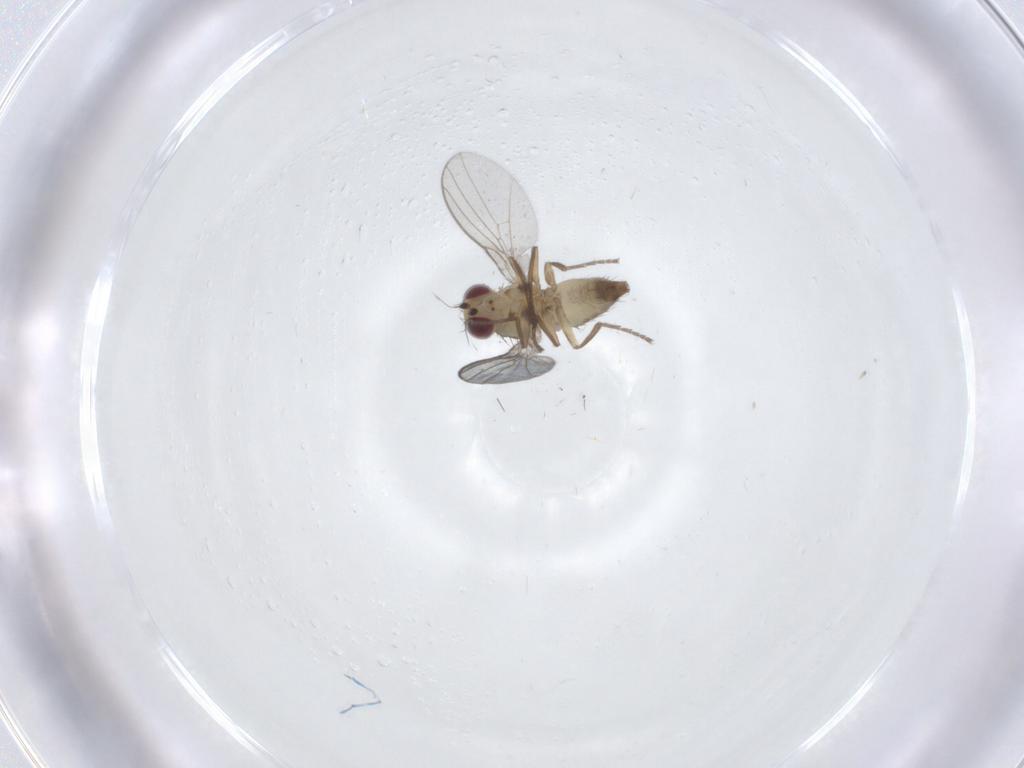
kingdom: Animalia
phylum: Arthropoda
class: Insecta
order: Diptera
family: Agromyzidae
